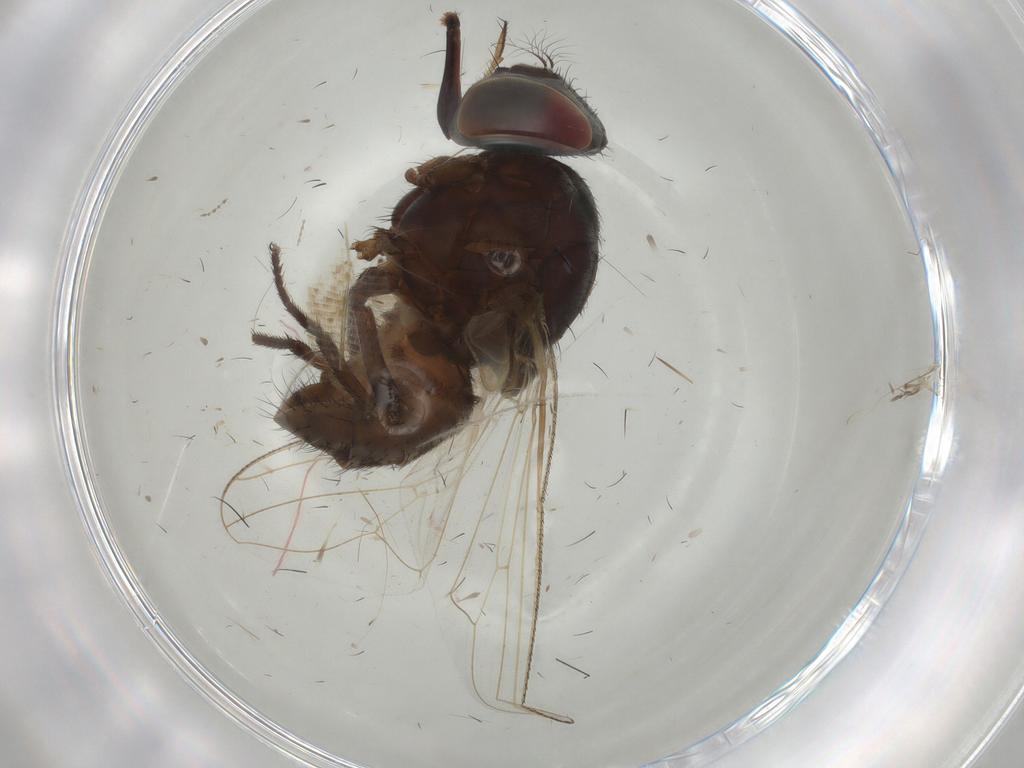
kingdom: Animalia
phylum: Arthropoda
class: Insecta
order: Diptera
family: Muscidae
